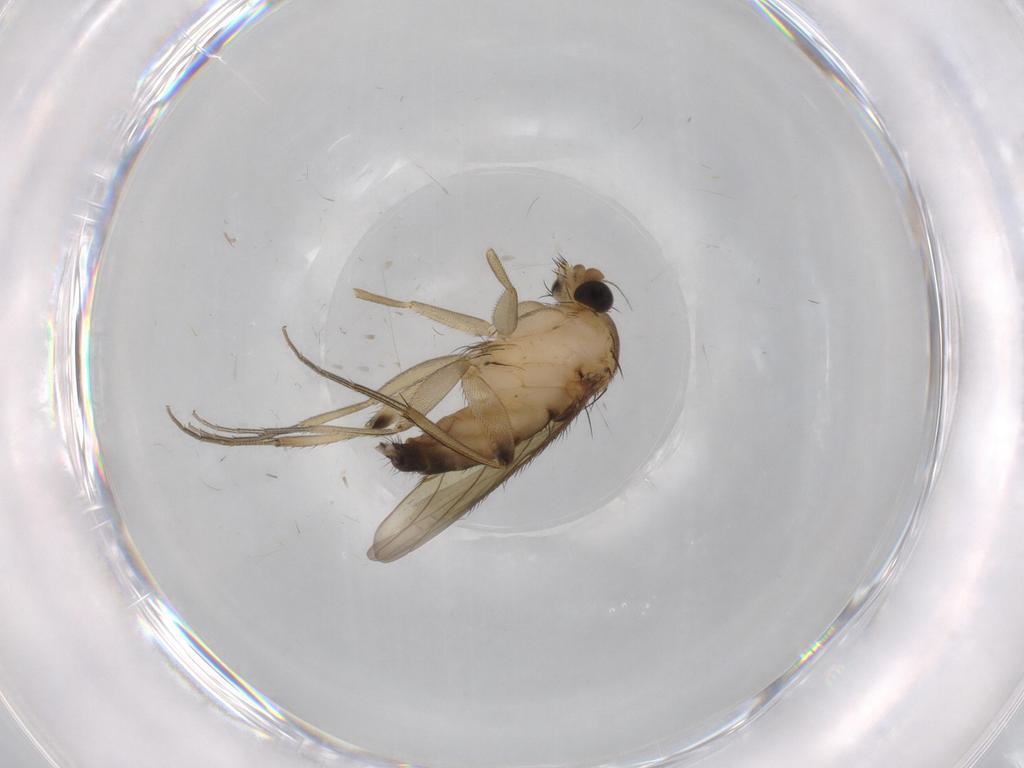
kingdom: Animalia
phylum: Arthropoda
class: Insecta
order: Diptera
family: Phoridae
